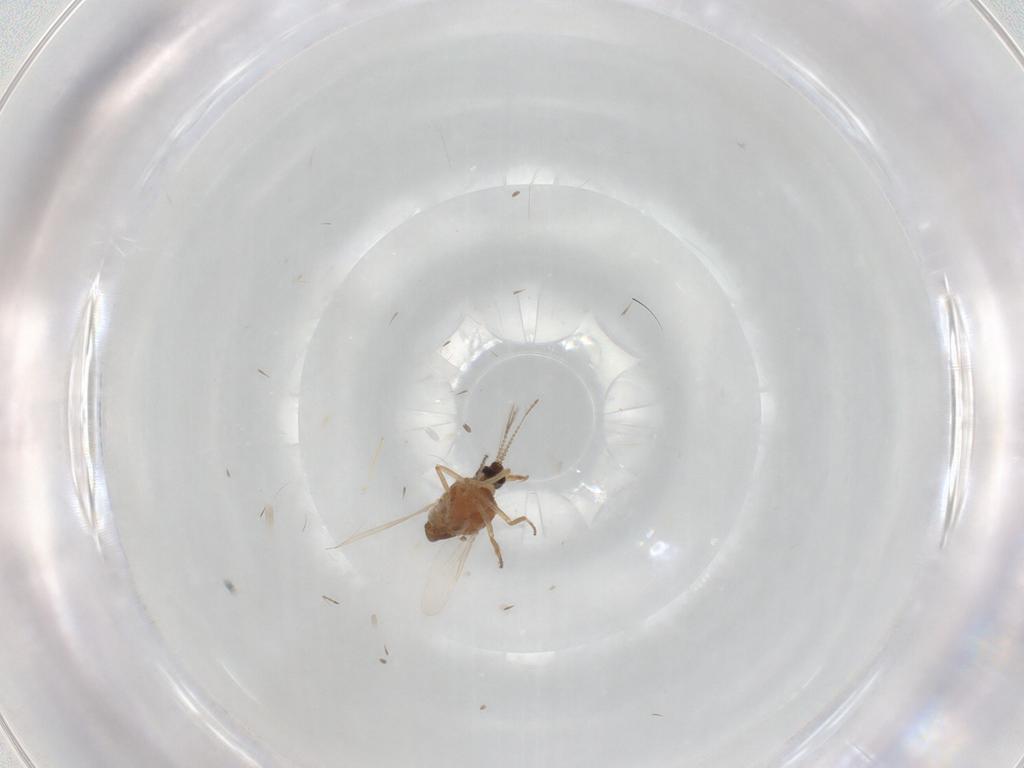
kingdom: Animalia
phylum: Arthropoda
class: Insecta
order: Diptera
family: Ceratopogonidae
